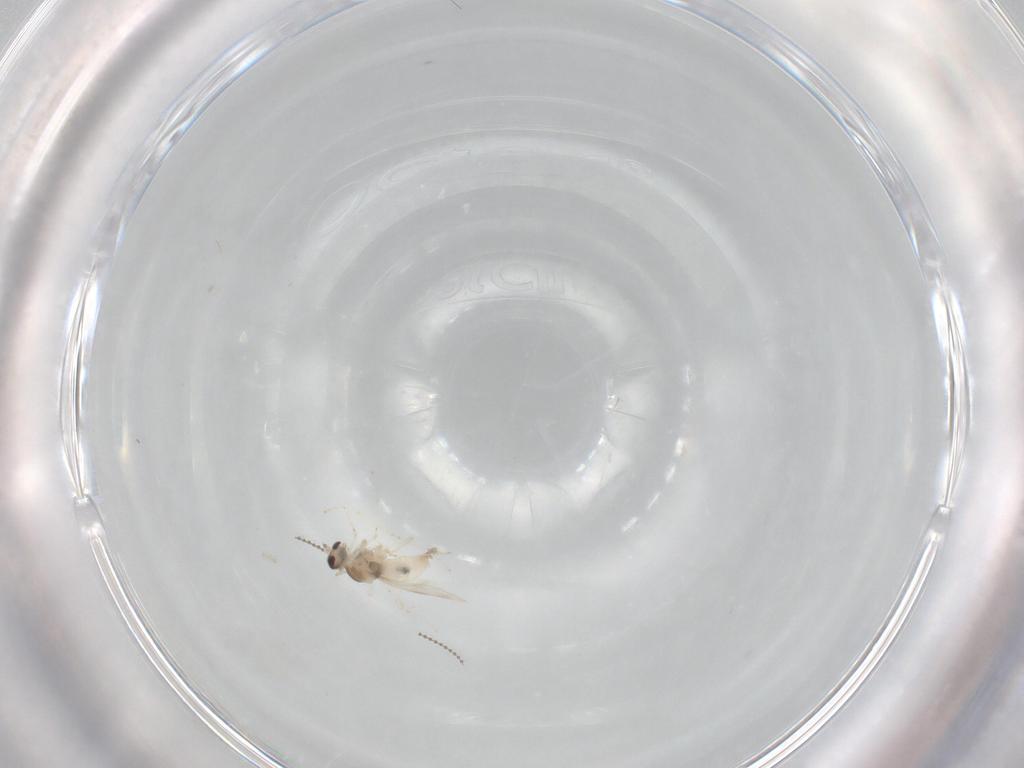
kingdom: Animalia
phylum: Arthropoda
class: Insecta
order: Diptera
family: Cecidomyiidae
